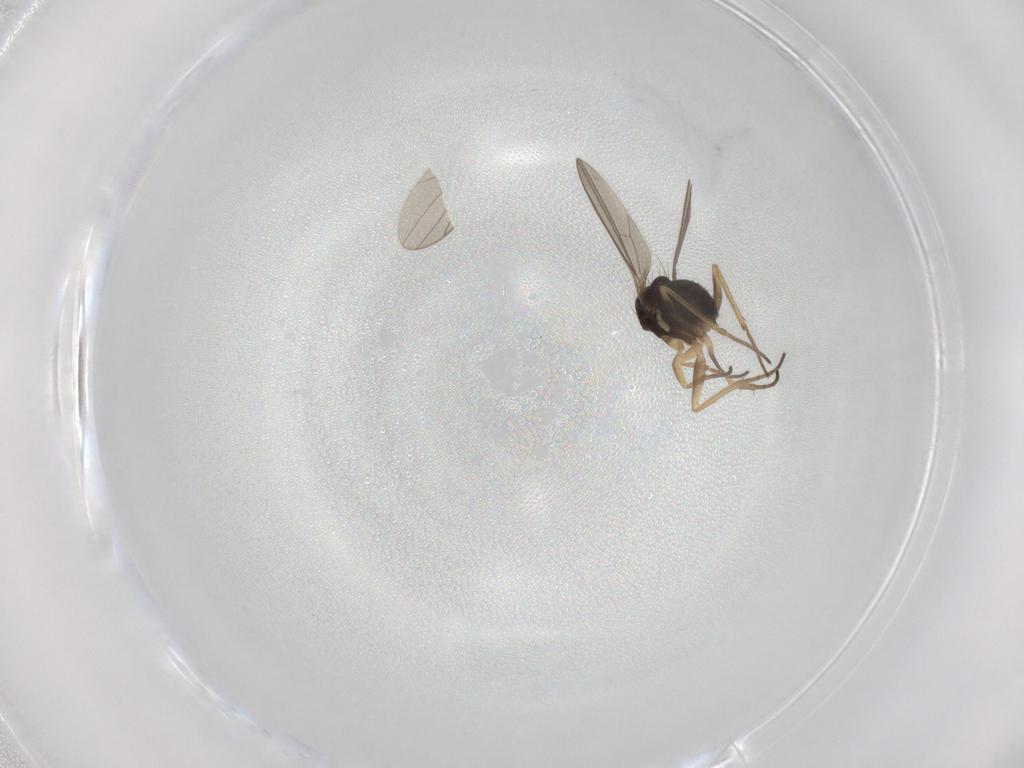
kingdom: Animalia
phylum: Arthropoda
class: Insecta
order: Diptera
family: Dolichopodidae
